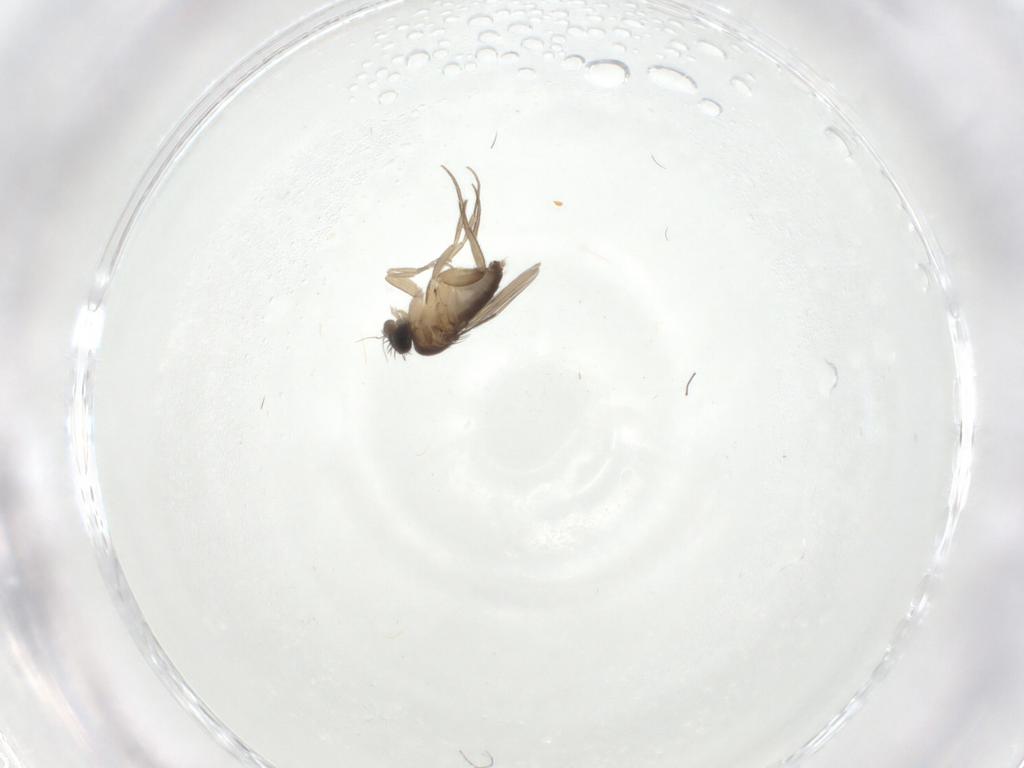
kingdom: Animalia
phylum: Arthropoda
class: Insecta
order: Diptera
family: Phoridae
